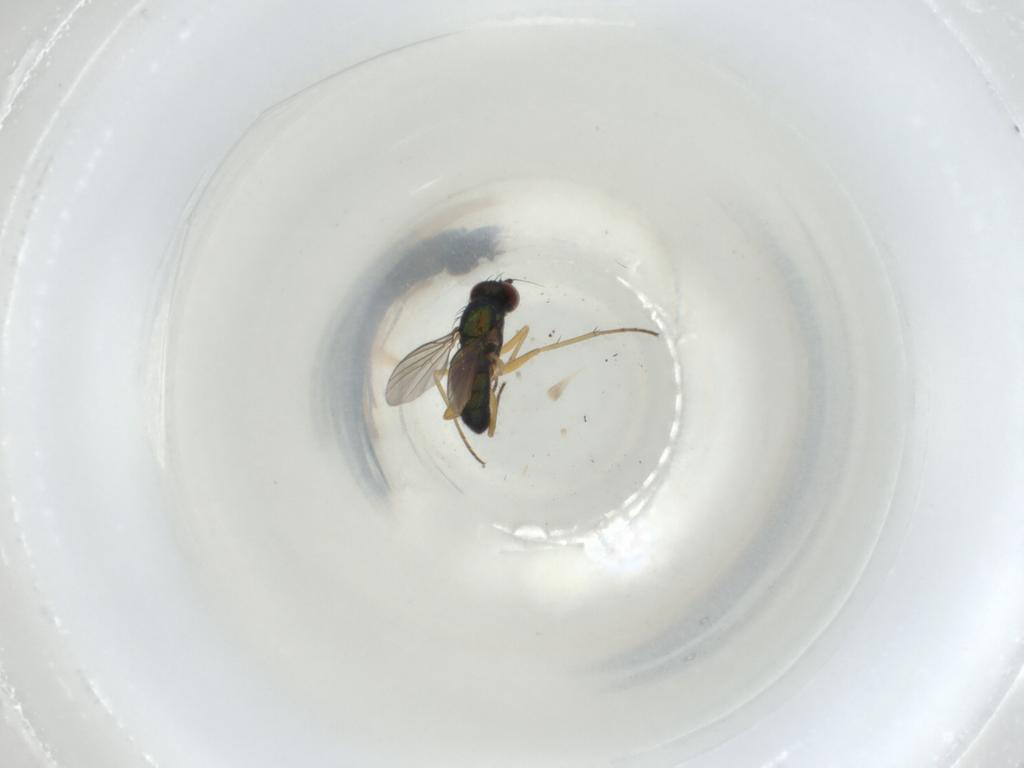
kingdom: Animalia
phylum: Arthropoda
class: Insecta
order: Diptera
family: Dolichopodidae
